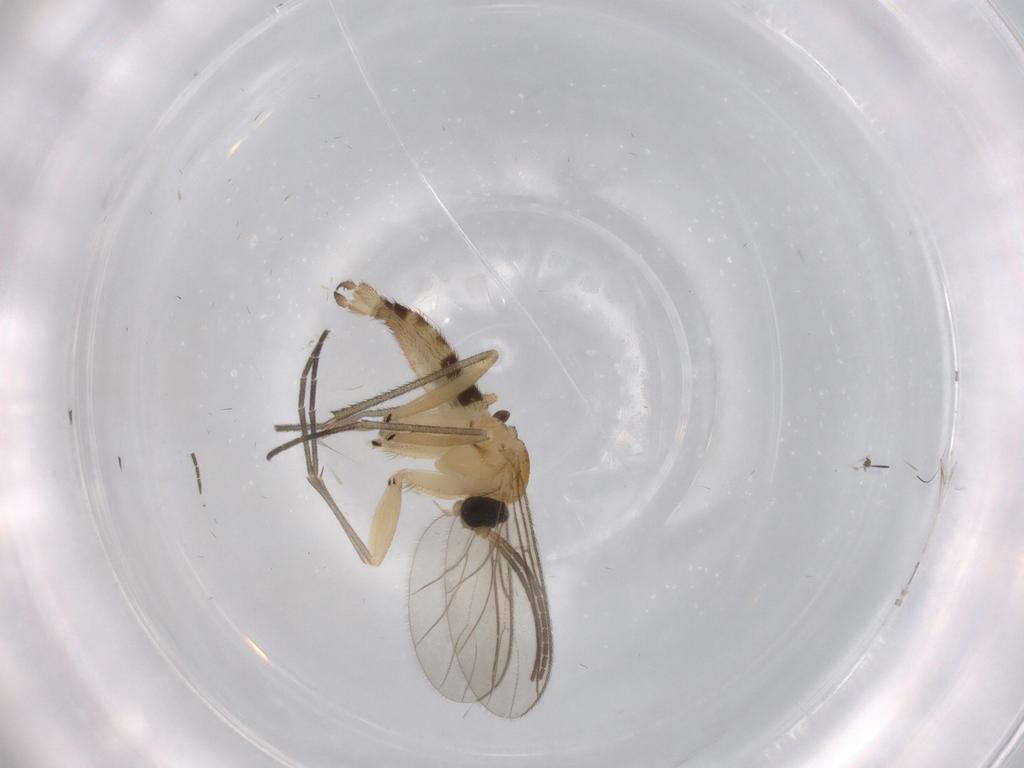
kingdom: Animalia
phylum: Arthropoda
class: Insecta
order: Diptera
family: Sciaridae
